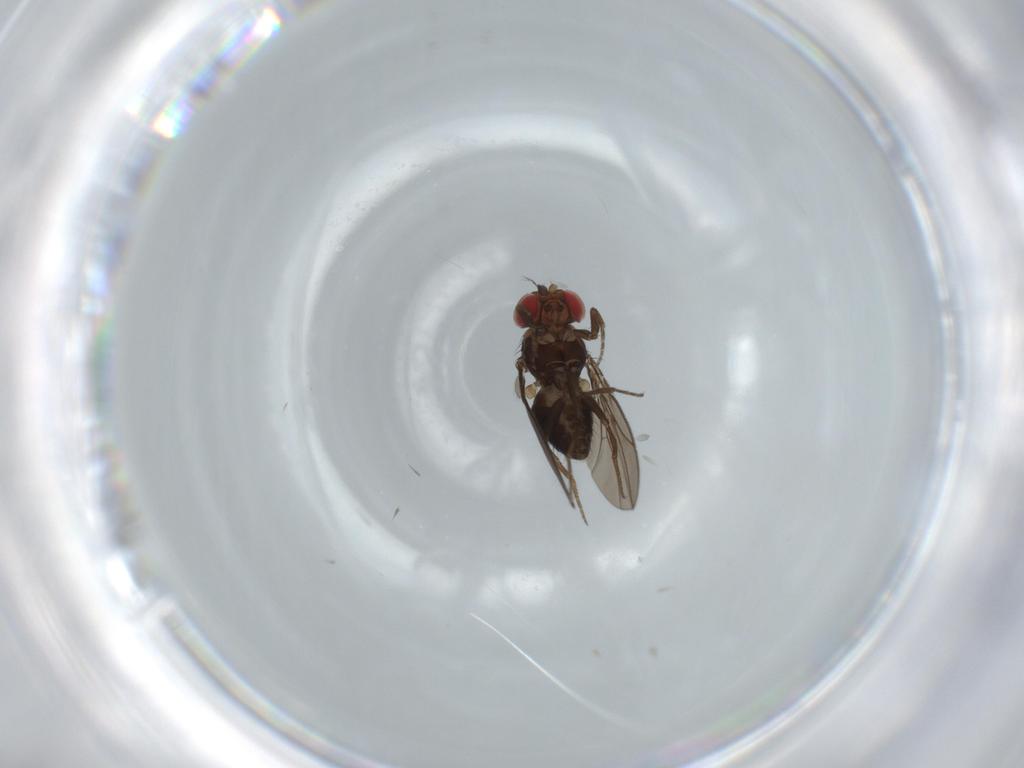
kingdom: Animalia
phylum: Arthropoda
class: Insecta
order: Diptera
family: Ephydridae
